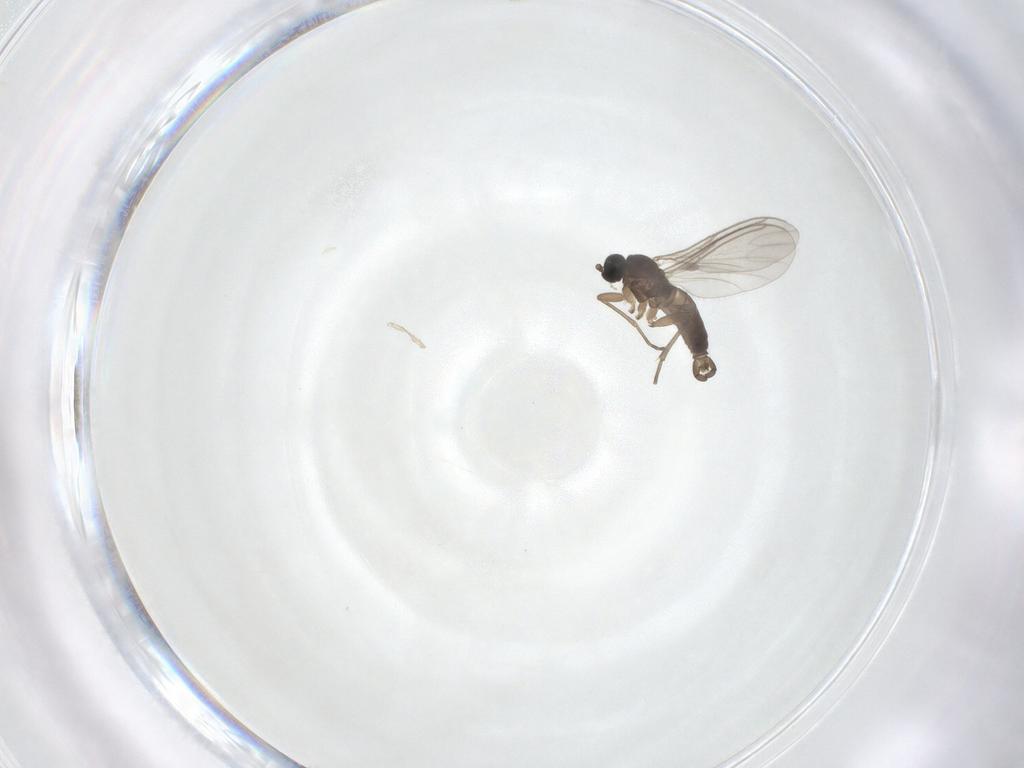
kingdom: Animalia
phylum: Arthropoda
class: Insecta
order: Diptera
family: Sciaridae
